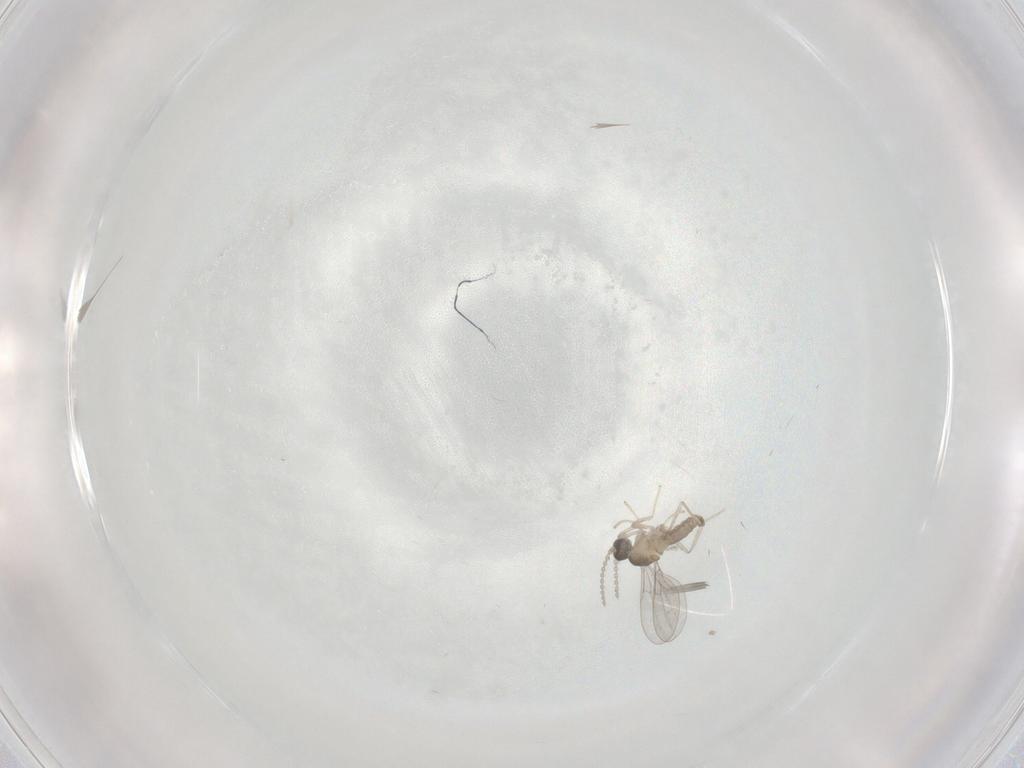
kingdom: Animalia
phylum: Arthropoda
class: Insecta
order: Diptera
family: Cecidomyiidae
